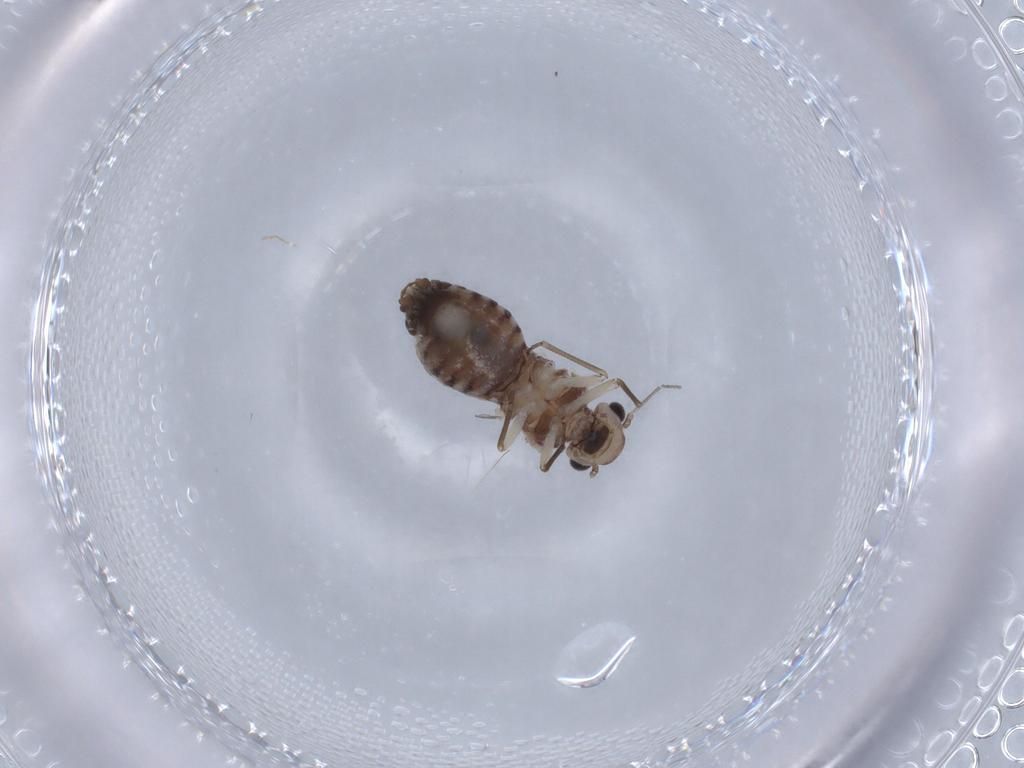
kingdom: Animalia
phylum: Arthropoda
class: Insecta
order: Psocodea
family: Peripsocidae
